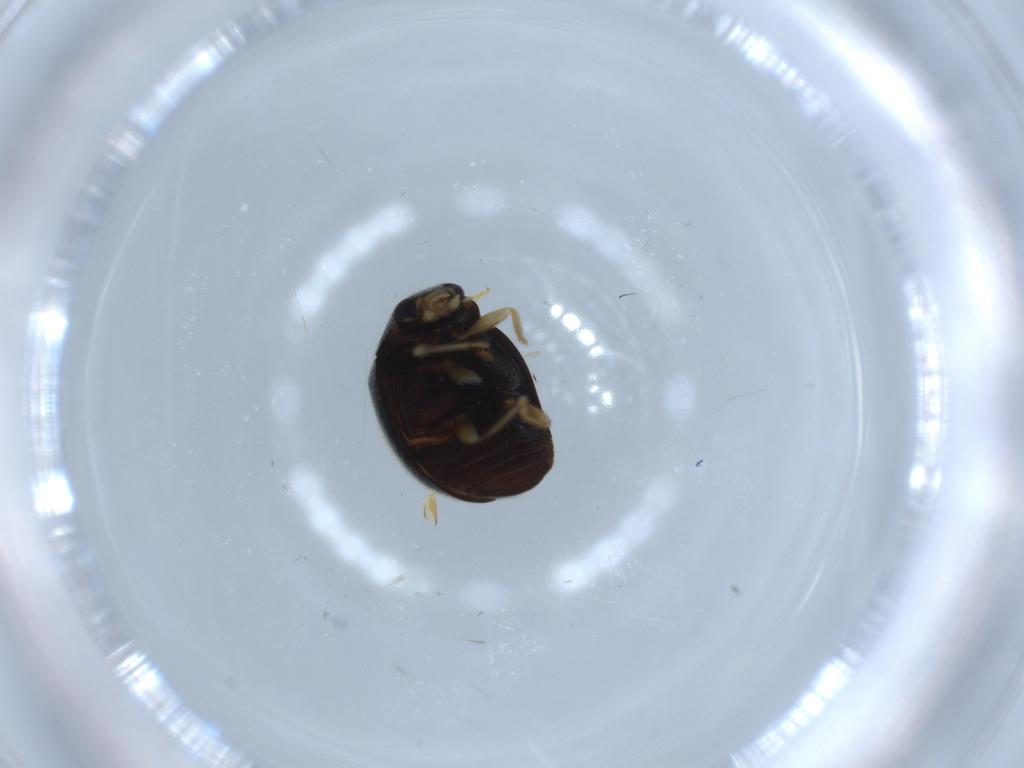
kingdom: Animalia
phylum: Arthropoda
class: Insecta
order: Coleoptera
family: Coccinellidae
